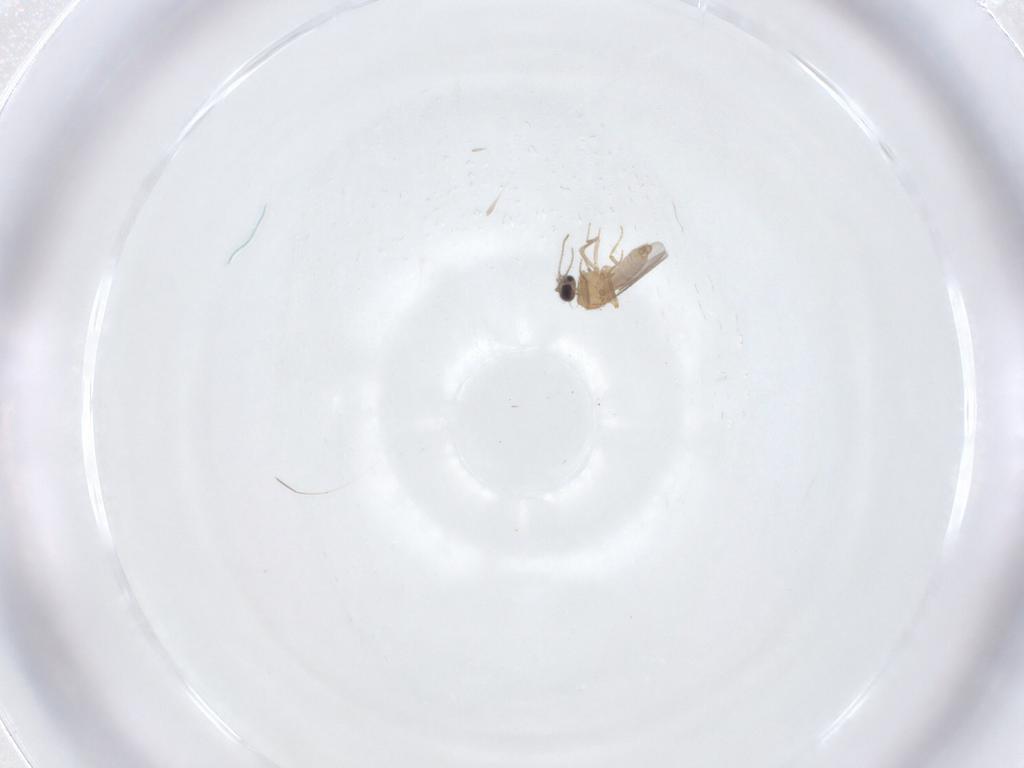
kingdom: Animalia
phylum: Arthropoda
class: Insecta
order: Diptera
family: Ceratopogonidae
